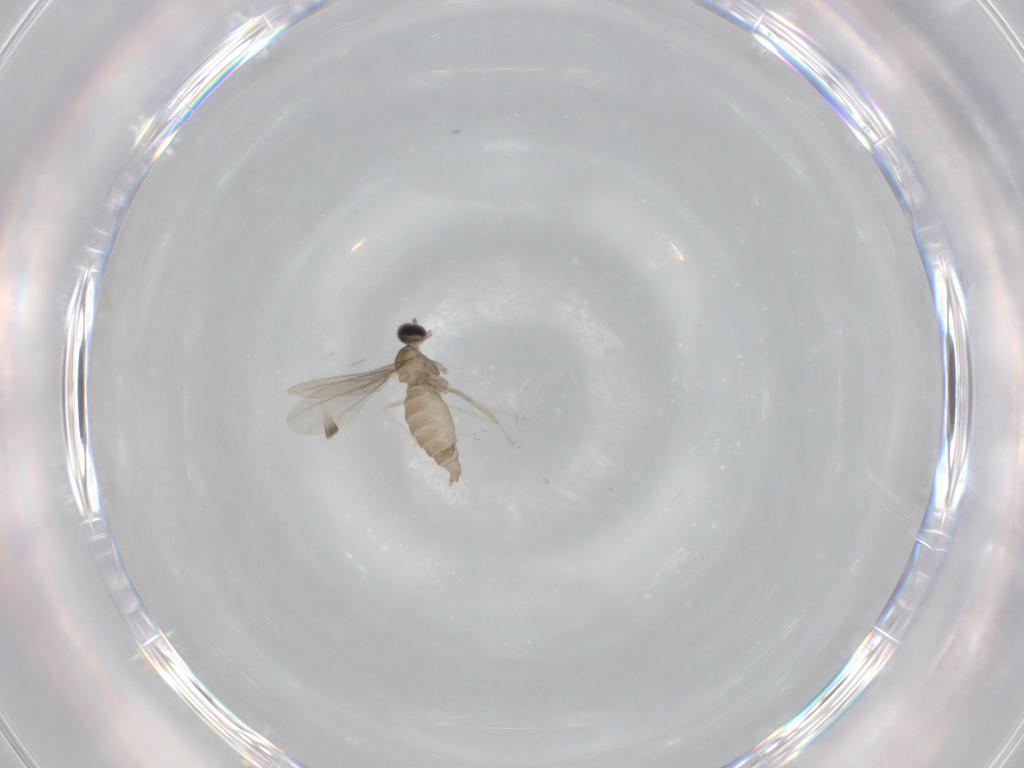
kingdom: Animalia
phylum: Arthropoda
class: Insecta
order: Diptera
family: Cecidomyiidae
